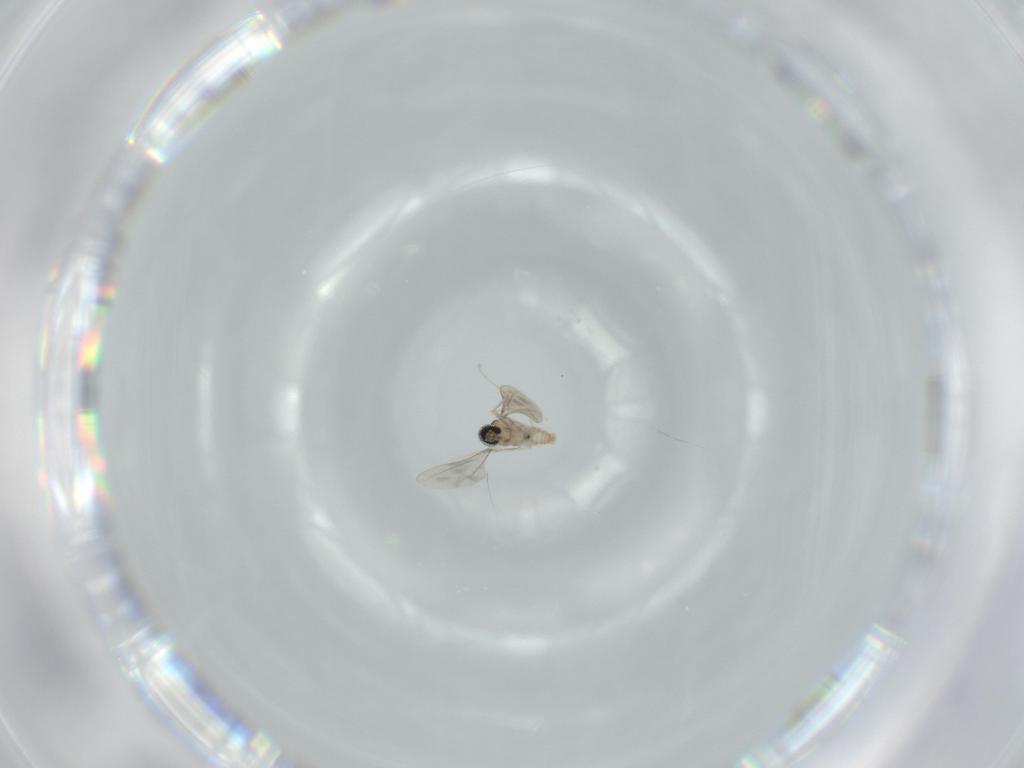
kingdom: Animalia
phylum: Arthropoda
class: Insecta
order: Diptera
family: Cecidomyiidae
